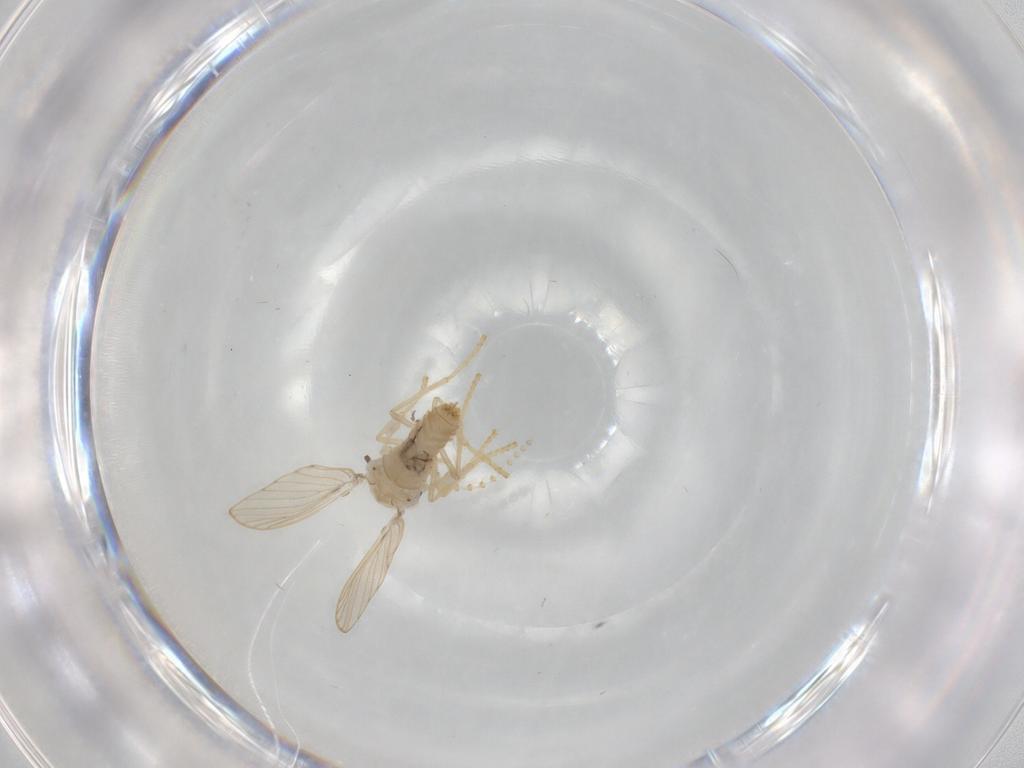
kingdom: Animalia
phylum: Arthropoda
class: Insecta
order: Diptera
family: Psychodidae
